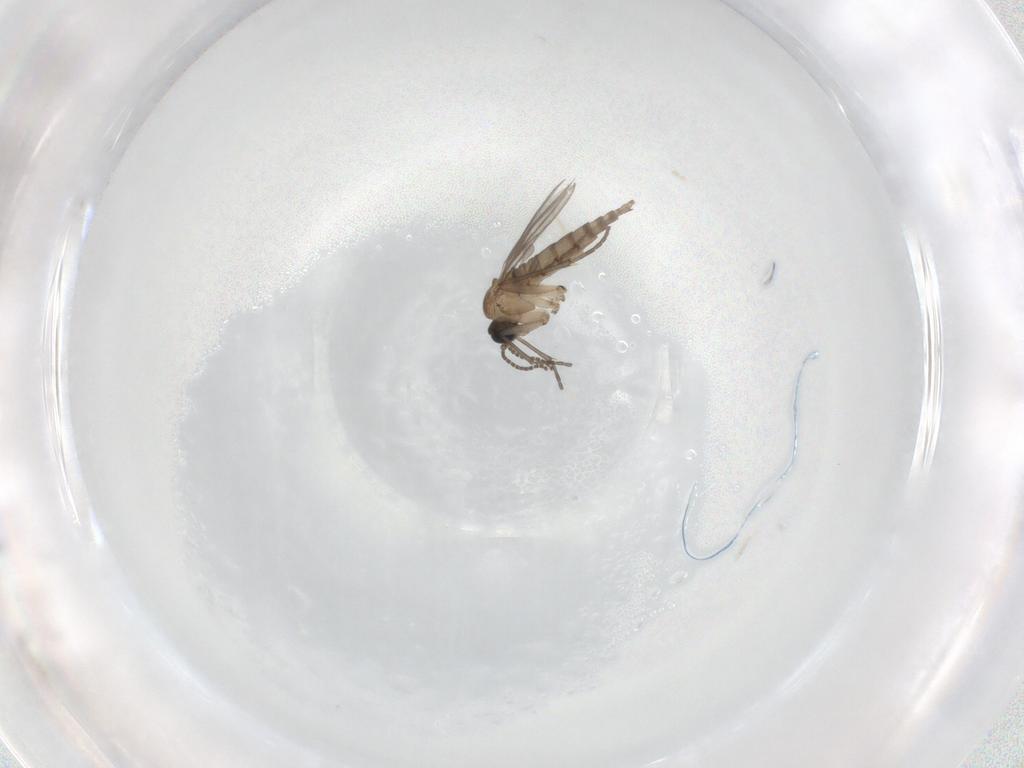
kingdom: Animalia
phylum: Arthropoda
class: Insecta
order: Diptera
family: Sciaridae
